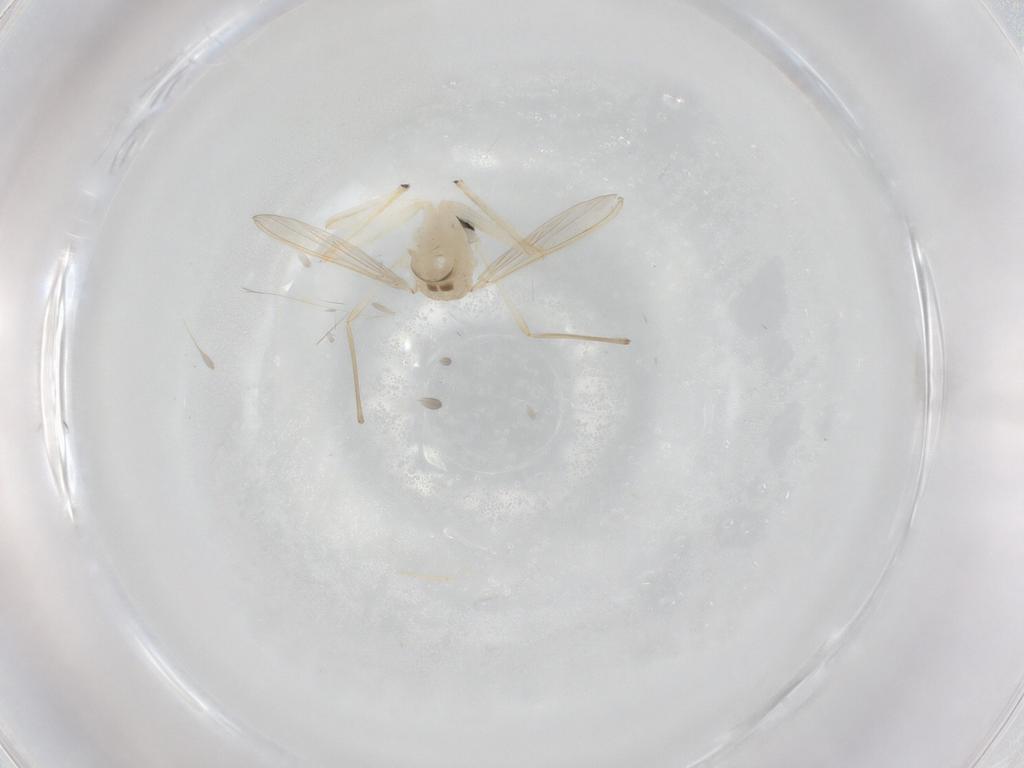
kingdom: Animalia
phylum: Arthropoda
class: Insecta
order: Diptera
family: Chironomidae
